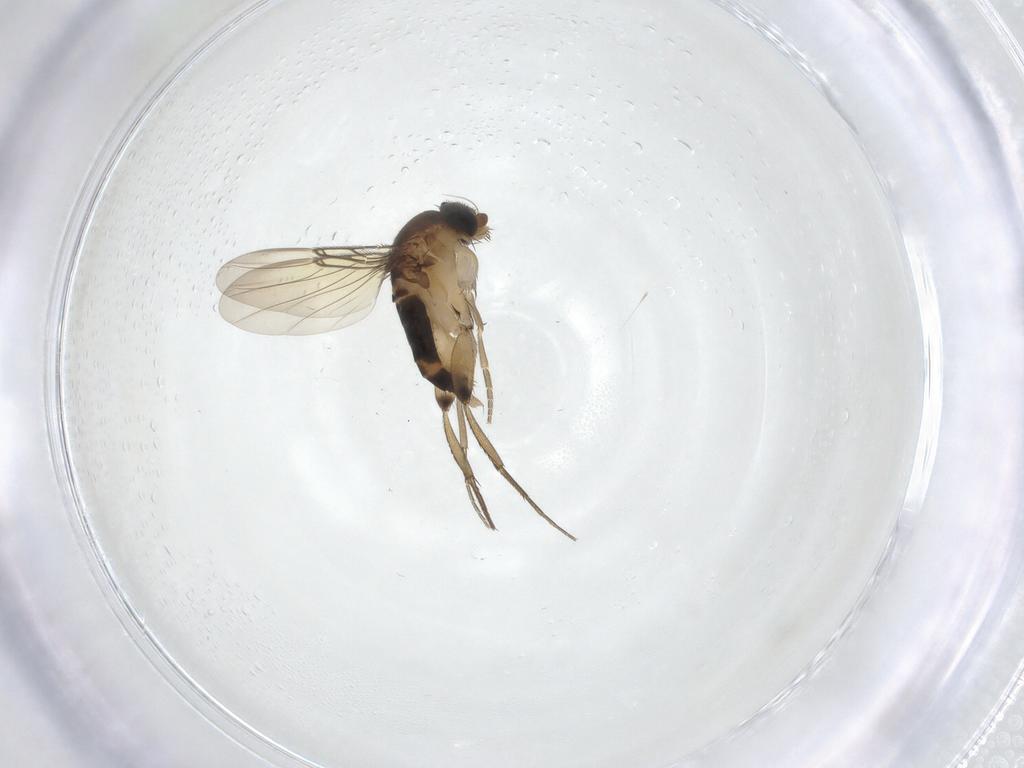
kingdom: Animalia
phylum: Arthropoda
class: Insecta
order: Diptera
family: Phoridae
